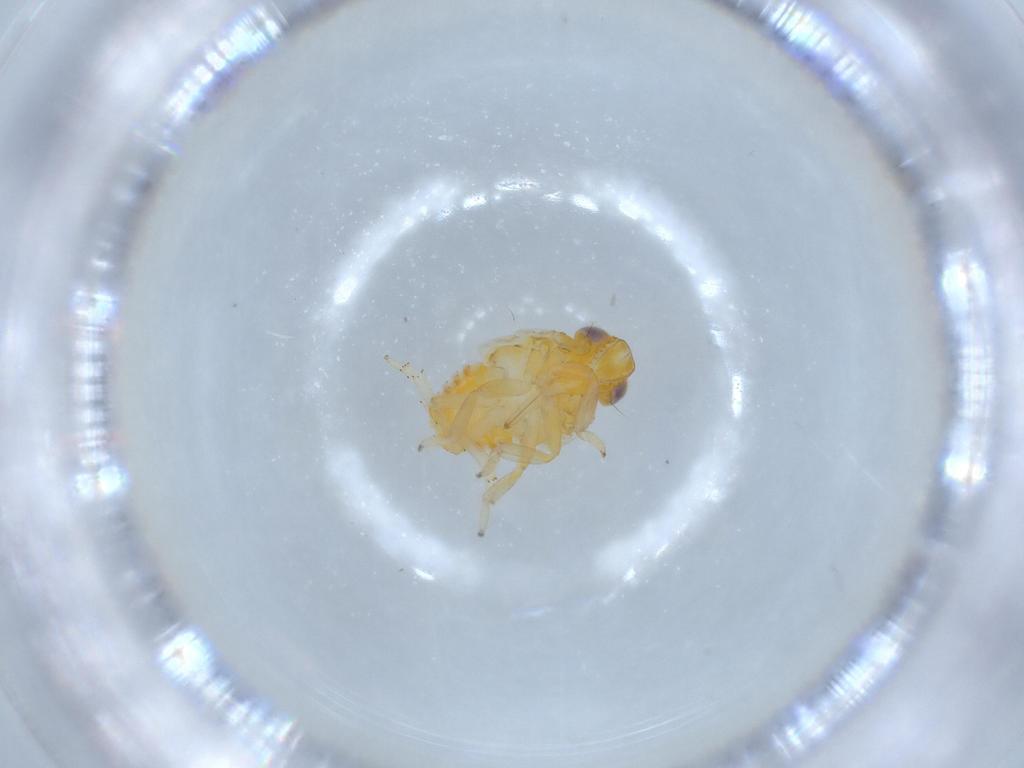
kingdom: Animalia
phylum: Arthropoda
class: Insecta
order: Hemiptera
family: Issidae
